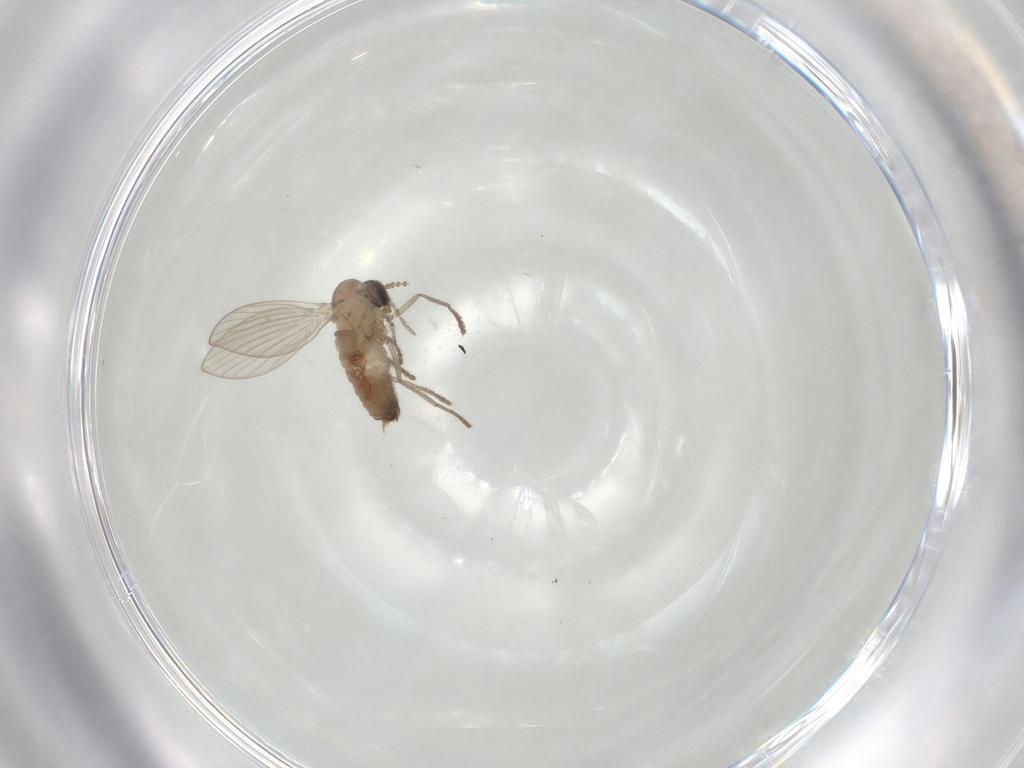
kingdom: Animalia
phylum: Arthropoda
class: Insecta
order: Diptera
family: Psychodidae
